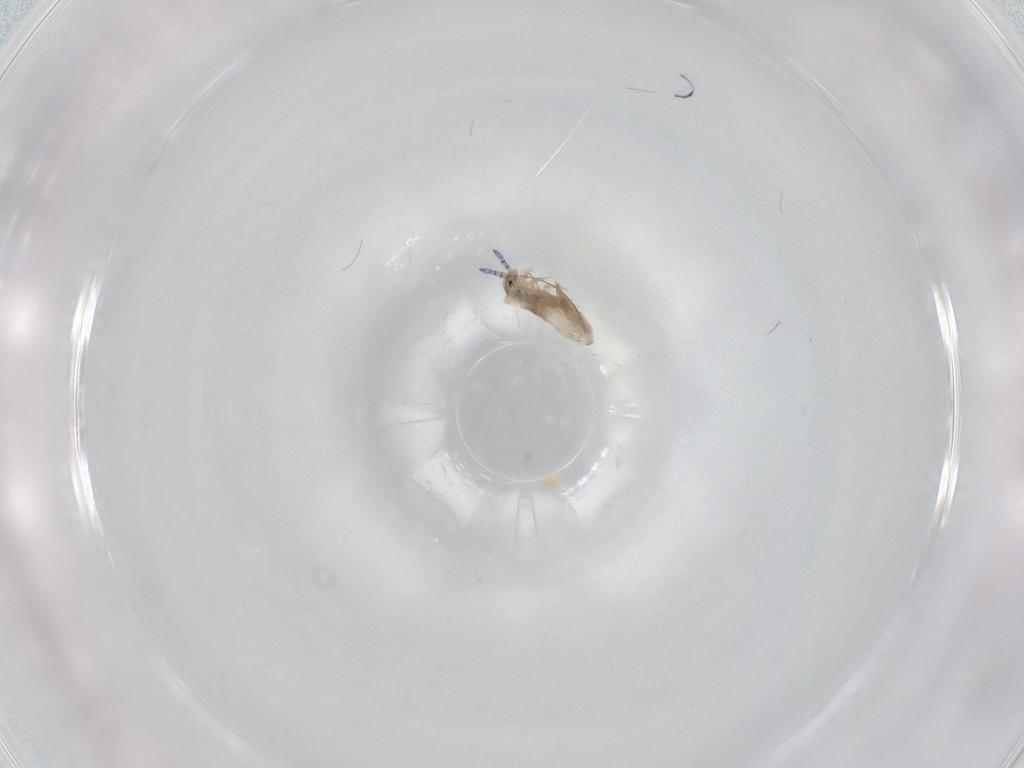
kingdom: Animalia
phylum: Arthropoda
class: Collembola
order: Entomobryomorpha
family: Entomobryidae
